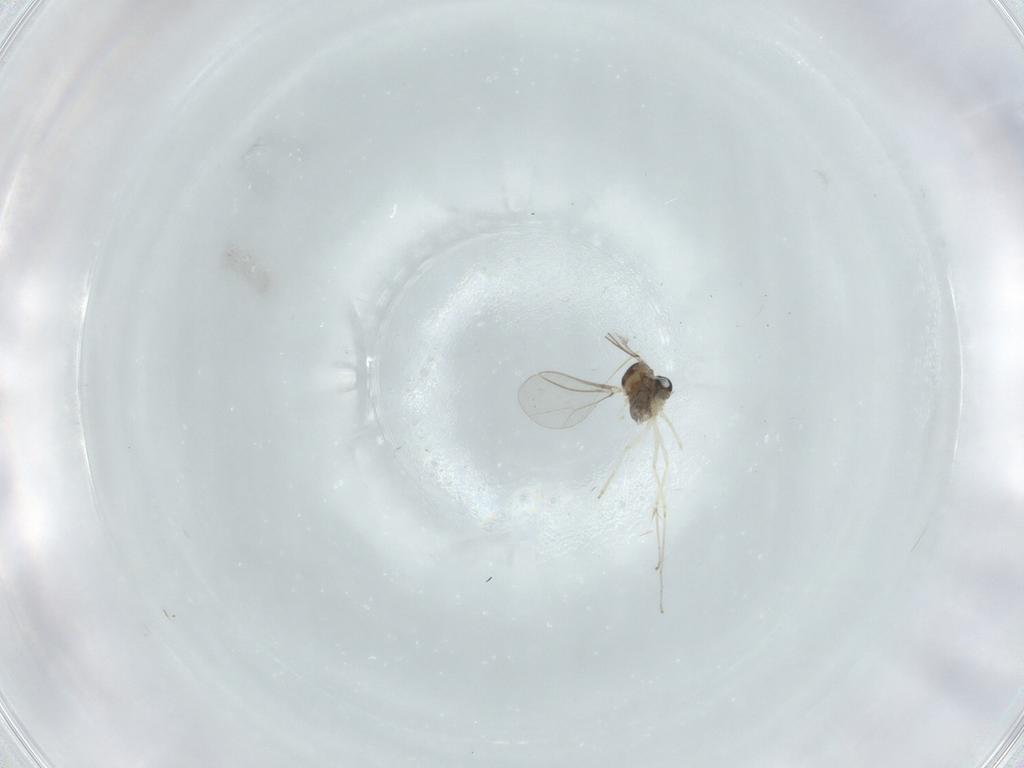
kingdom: Animalia
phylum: Arthropoda
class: Insecta
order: Diptera
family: Cecidomyiidae
